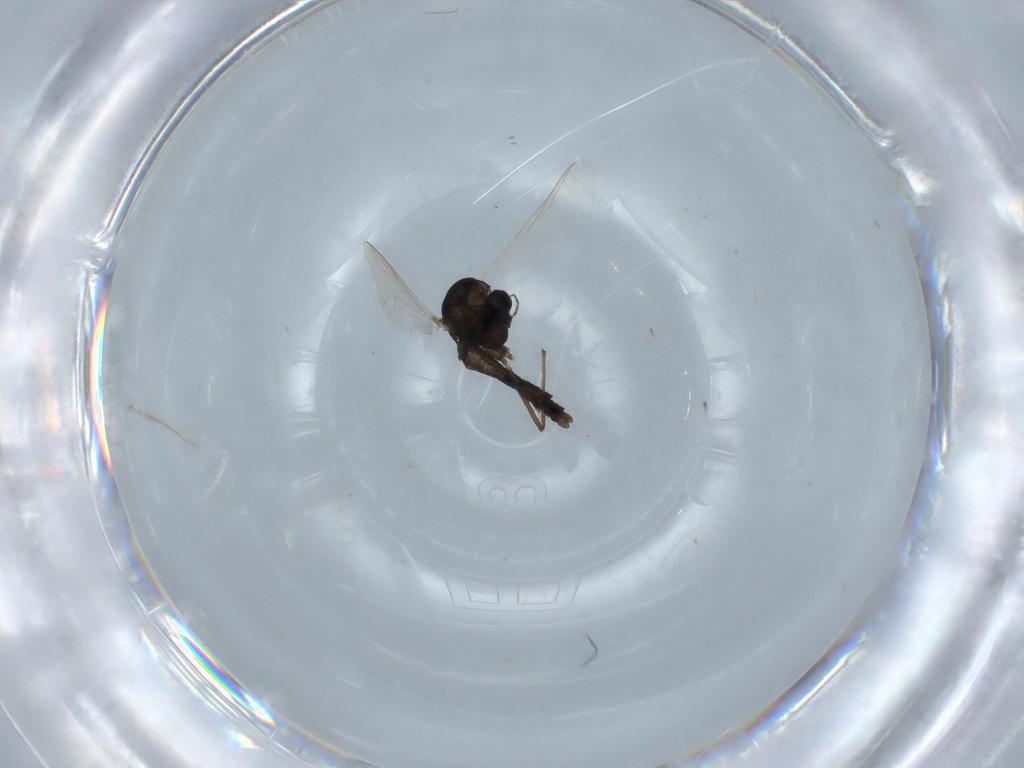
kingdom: Animalia
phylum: Arthropoda
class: Insecta
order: Diptera
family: Chironomidae
